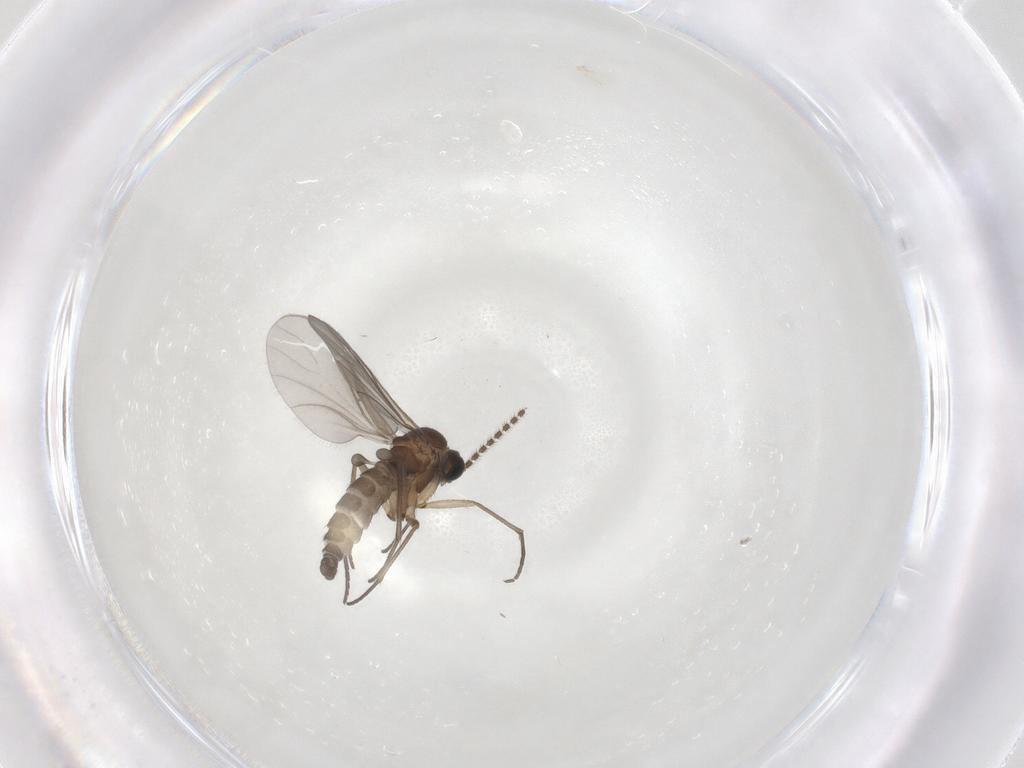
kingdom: Animalia
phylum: Arthropoda
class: Insecta
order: Diptera
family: Sciaridae
